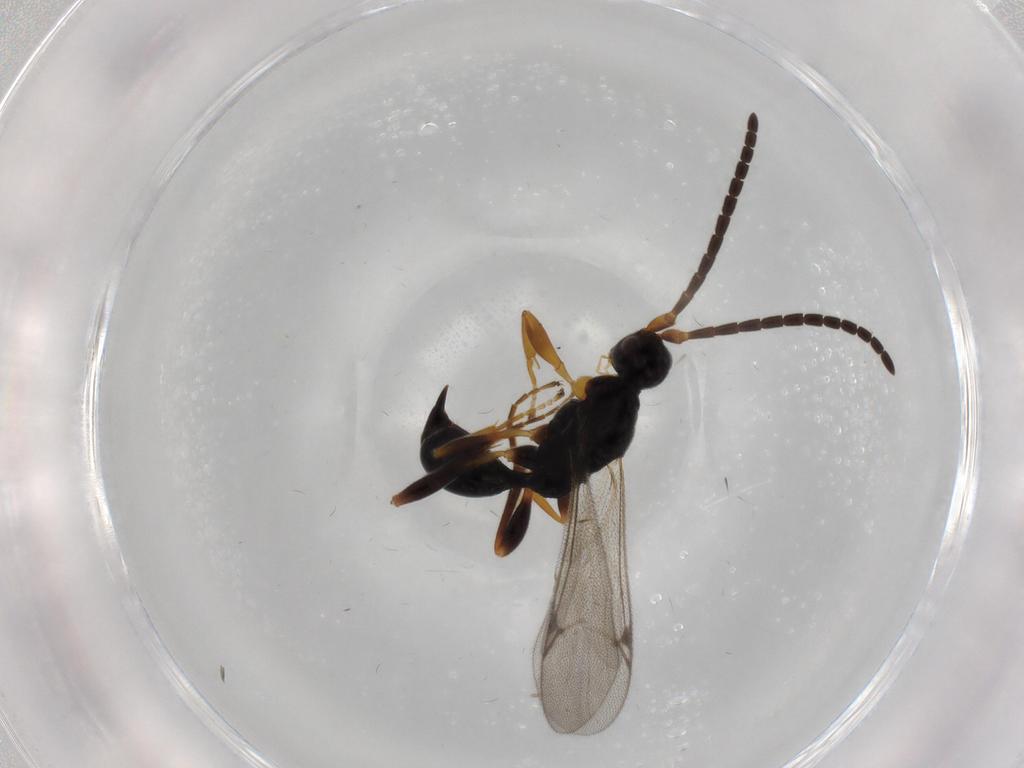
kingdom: Animalia
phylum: Arthropoda
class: Insecta
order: Hymenoptera
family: Proctotrupidae
